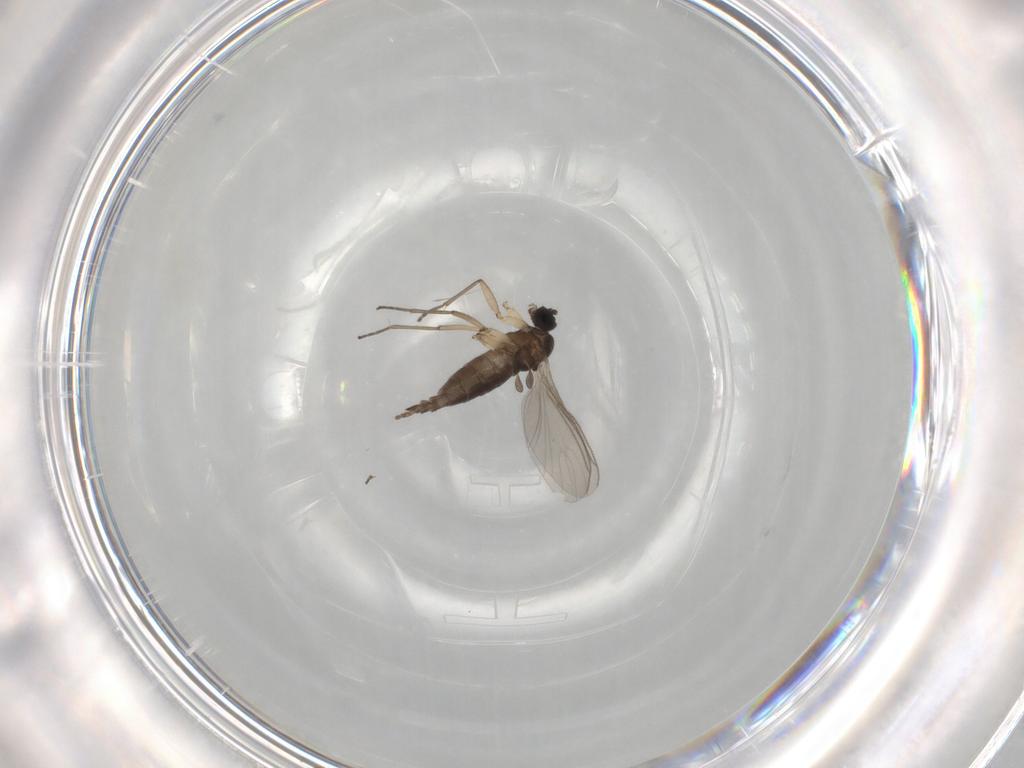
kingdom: Animalia
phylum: Arthropoda
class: Insecta
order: Diptera
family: Sciaridae
